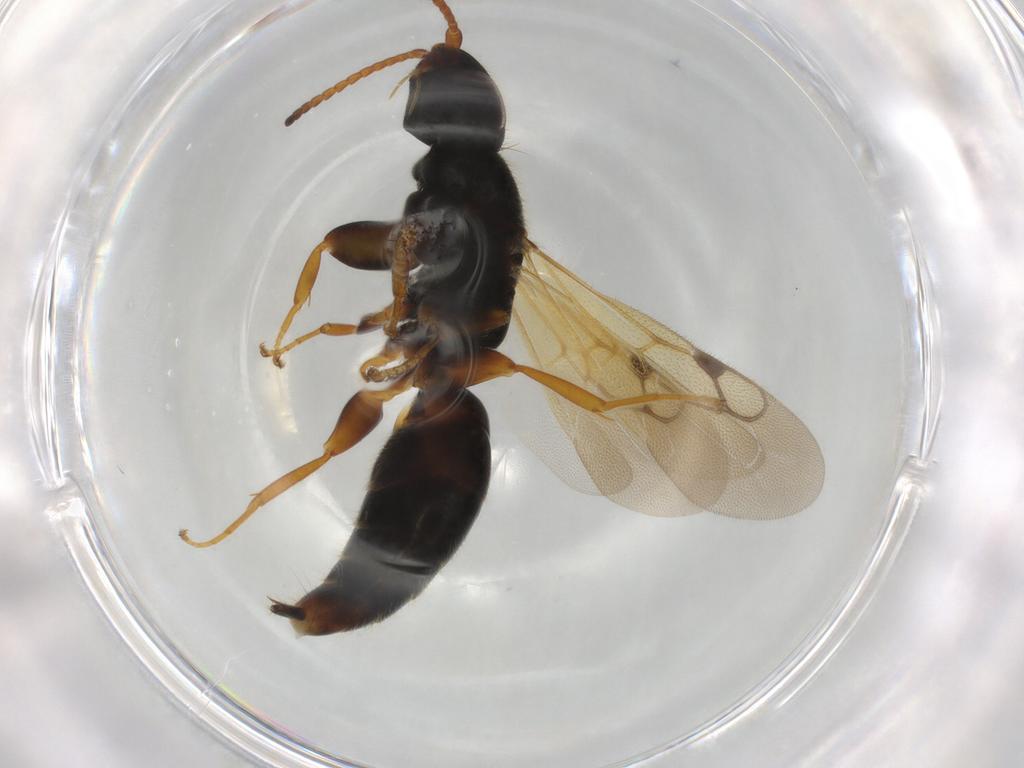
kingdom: Animalia
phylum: Arthropoda
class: Insecta
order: Hymenoptera
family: Bethylidae
